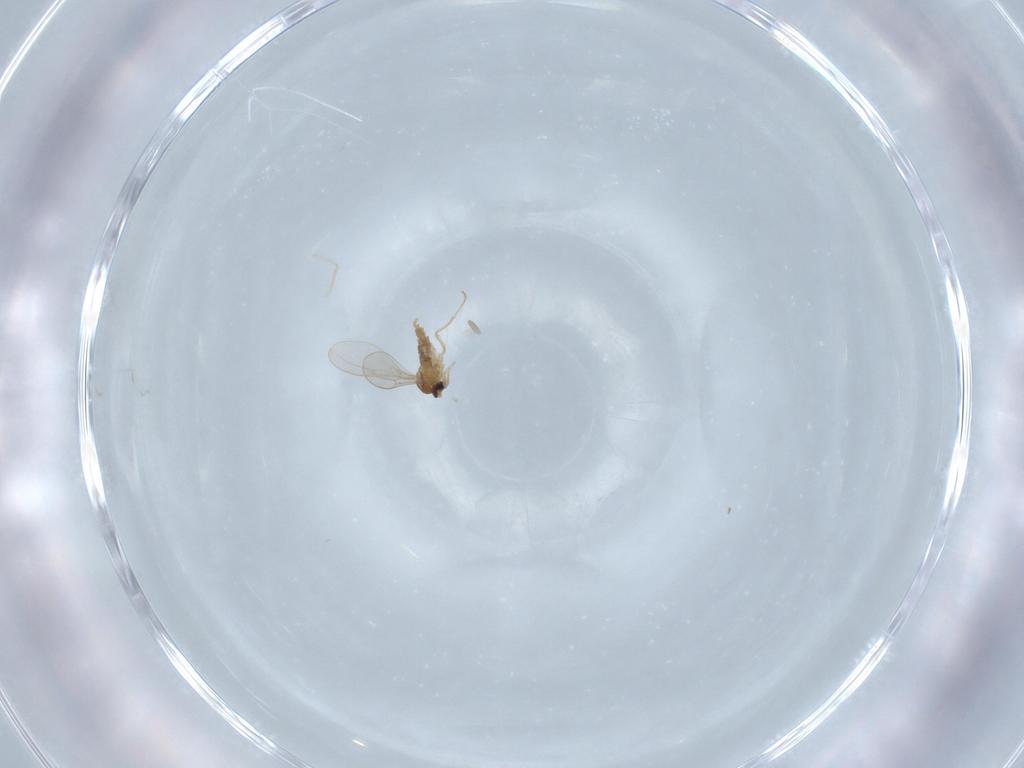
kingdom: Animalia
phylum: Arthropoda
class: Insecta
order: Diptera
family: Cecidomyiidae
